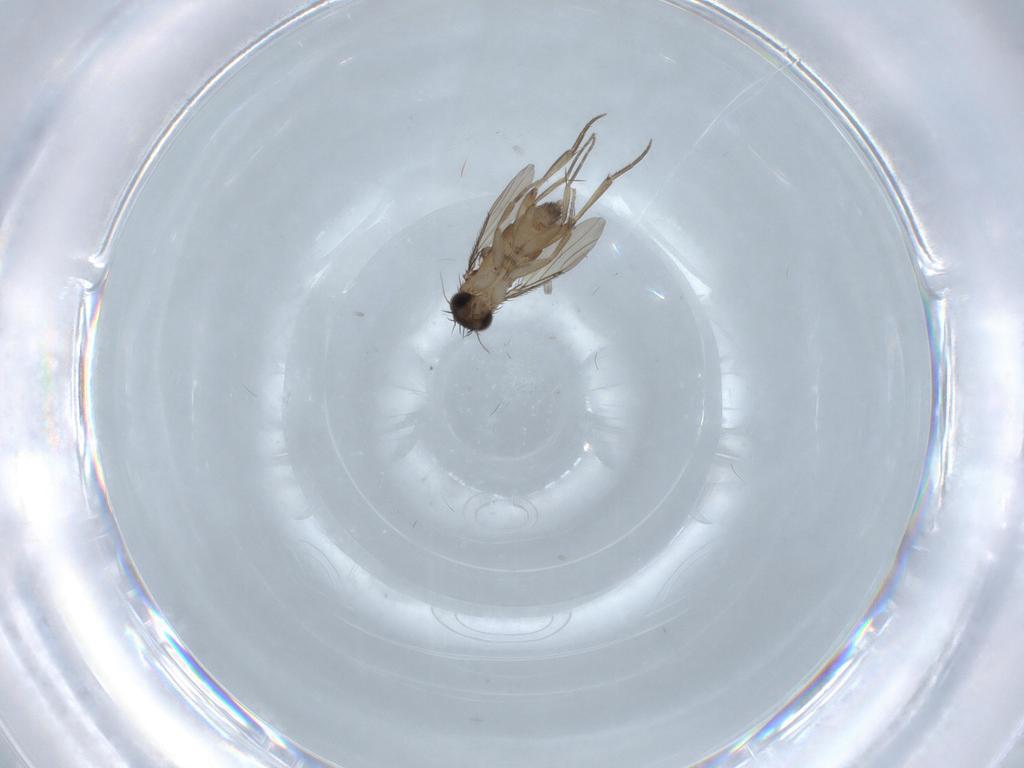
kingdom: Animalia
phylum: Arthropoda
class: Insecta
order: Diptera
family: Phoridae
